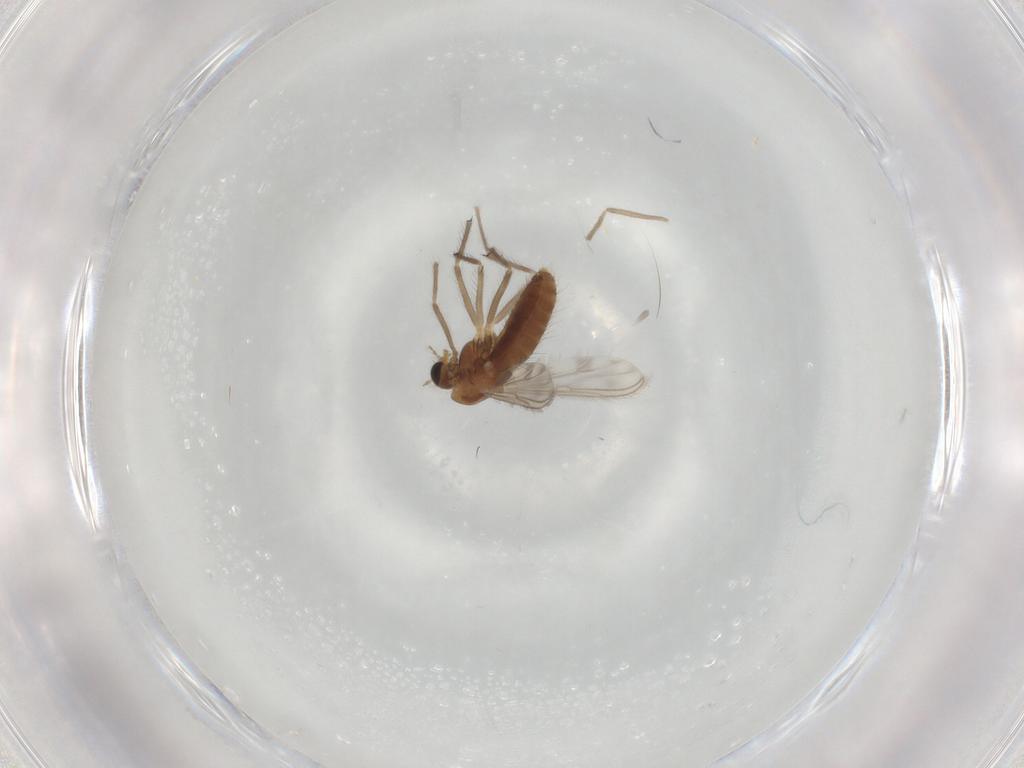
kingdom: Animalia
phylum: Arthropoda
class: Insecta
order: Diptera
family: Chironomidae
